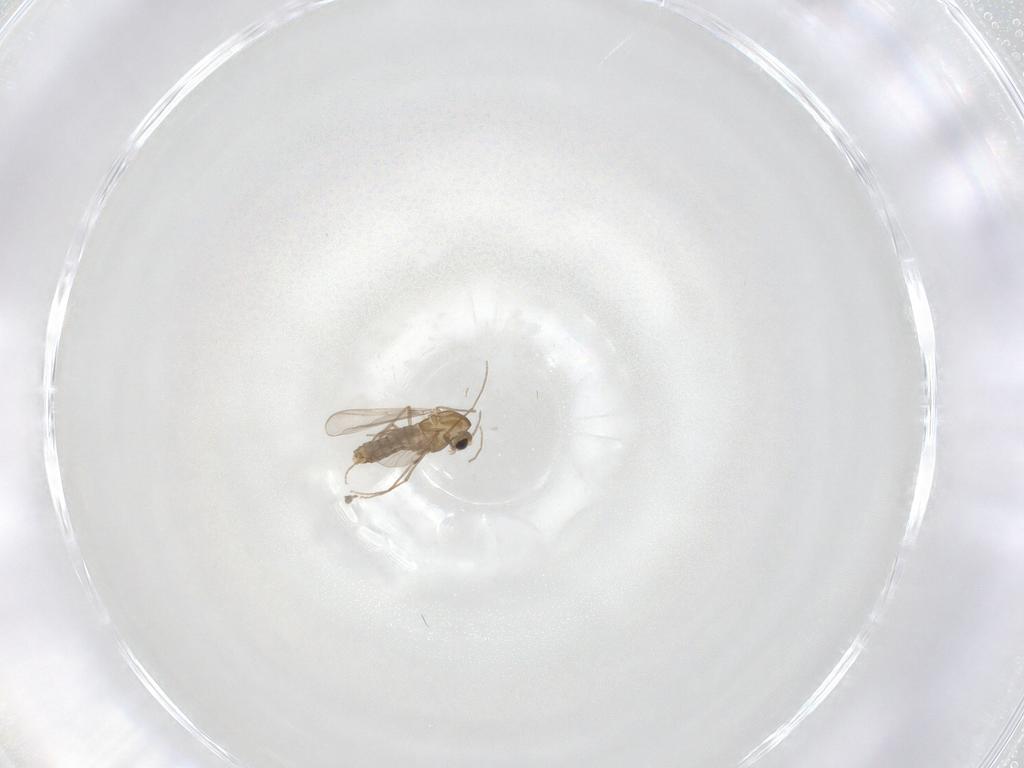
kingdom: Animalia
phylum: Arthropoda
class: Insecta
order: Diptera
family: Chironomidae
